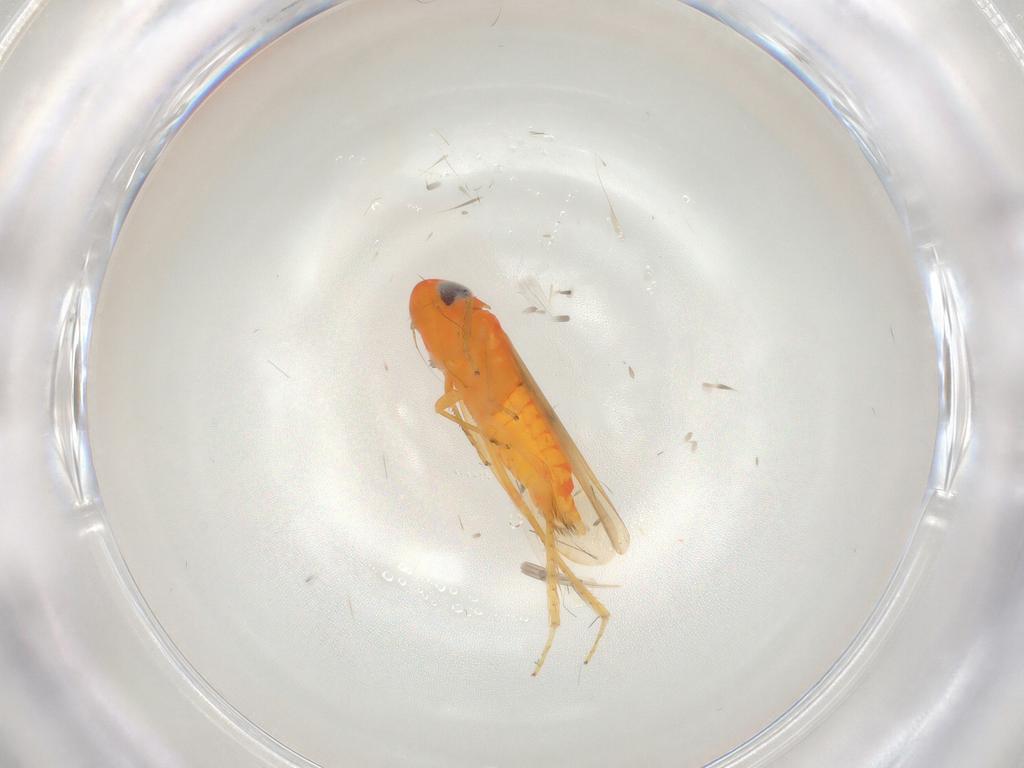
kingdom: Animalia
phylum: Arthropoda
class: Insecta
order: Hemiptera
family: Cicadellidae
